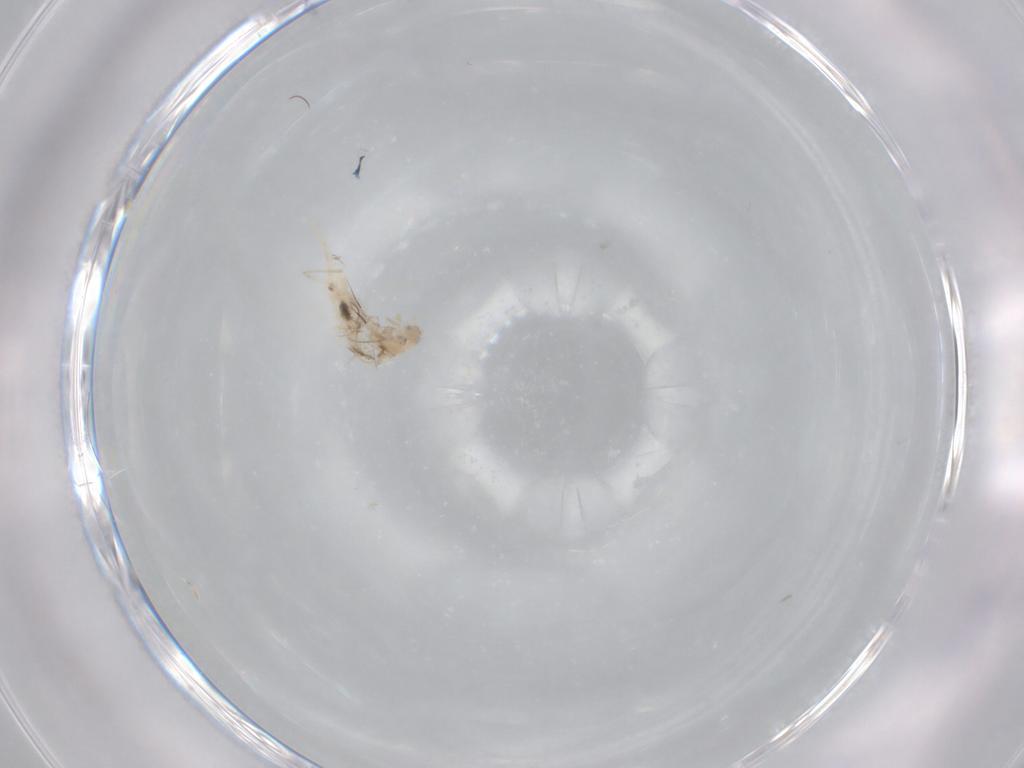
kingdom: Animalia
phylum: Arthropoda
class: Collembola
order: Entomobryomorpha
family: Entomobryidae
